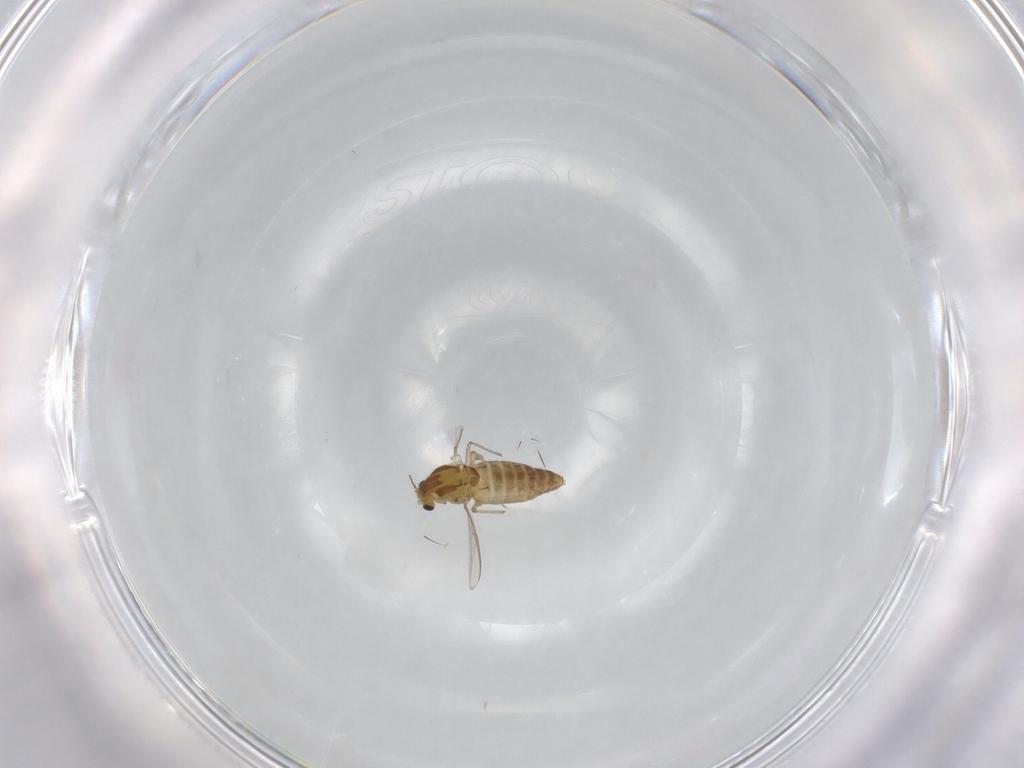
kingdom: Animalia
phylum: Arthropoda
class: Insecta
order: Diptera
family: Chironomidae
